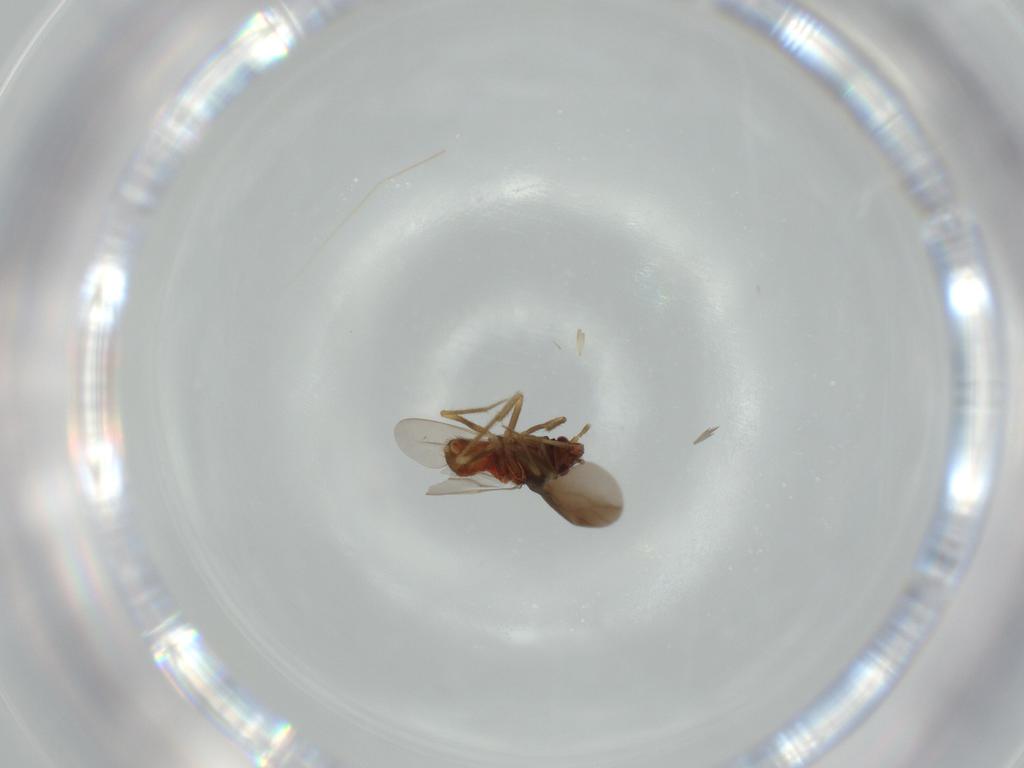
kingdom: Animalia
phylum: Arthropoda
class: Insecta
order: Hemiptera
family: Ceratocombidae
